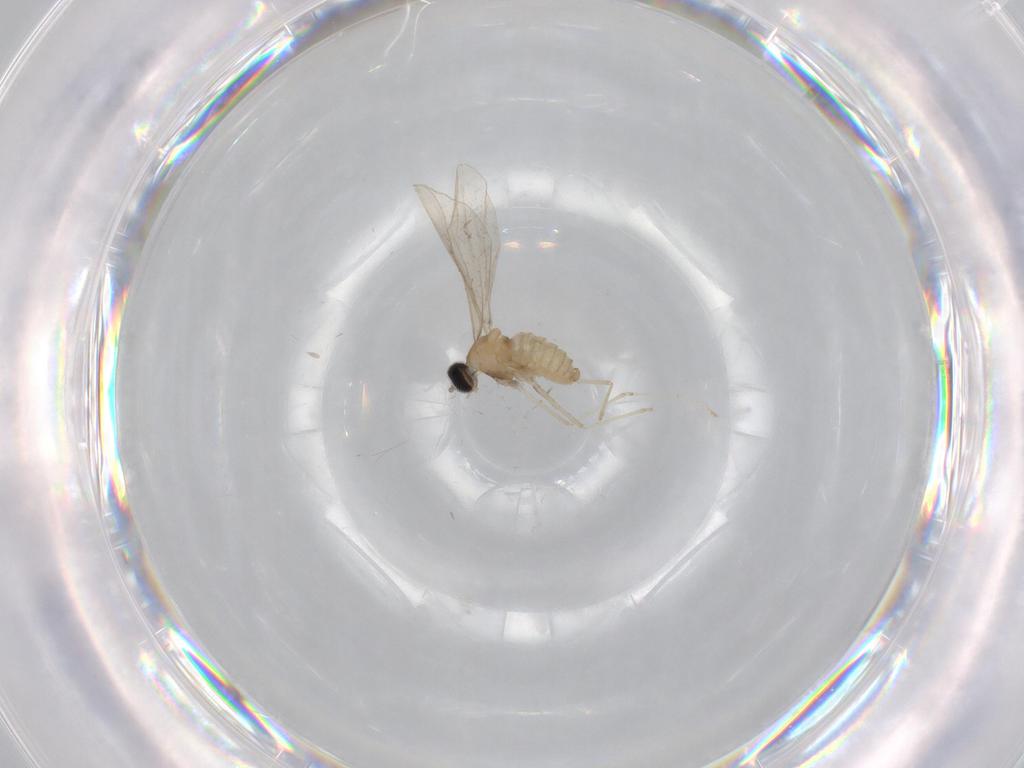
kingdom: Animalia
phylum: Arthropoda
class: Insecta
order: Diptera
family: Cecidomyiidae
